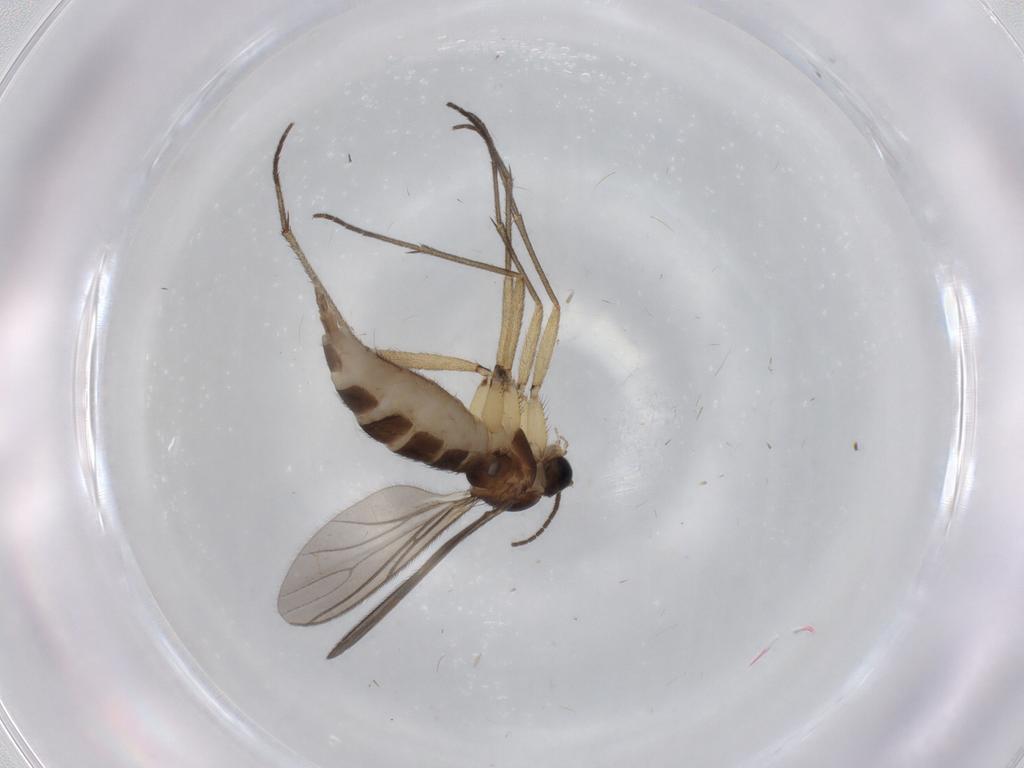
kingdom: Animalia
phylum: Arthropoda
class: Insecta
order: Diptera
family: Sciaridae
